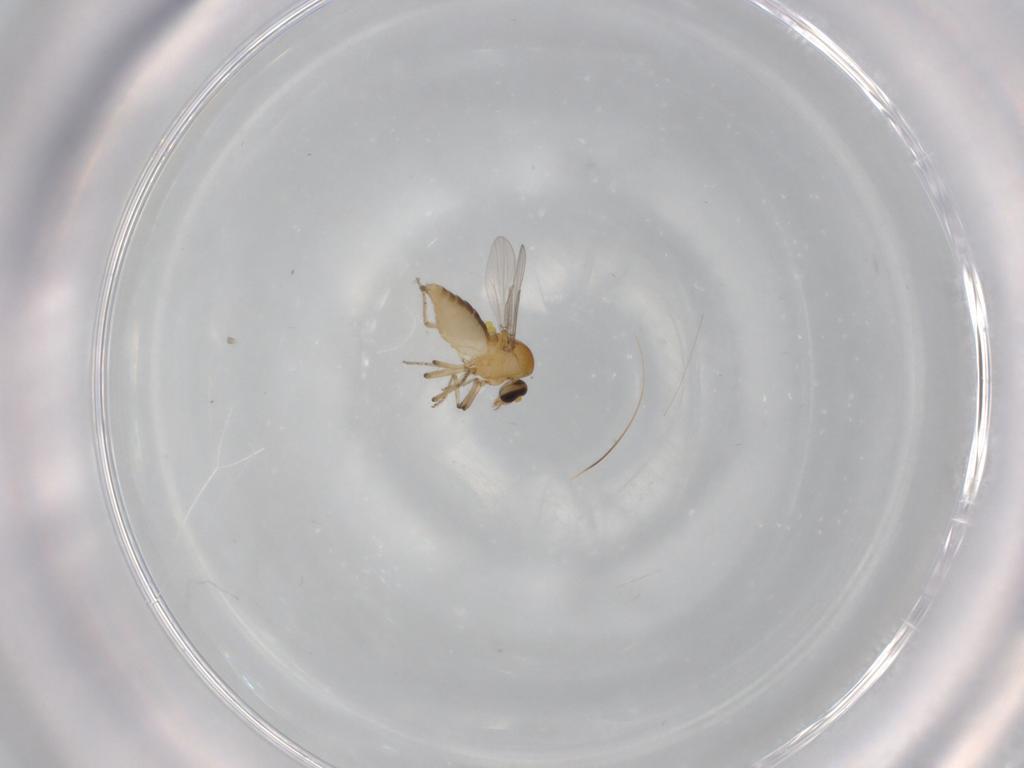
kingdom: Animalia
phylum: Arthropoda
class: Insecta
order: Diptera
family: Ceratopogonidae
